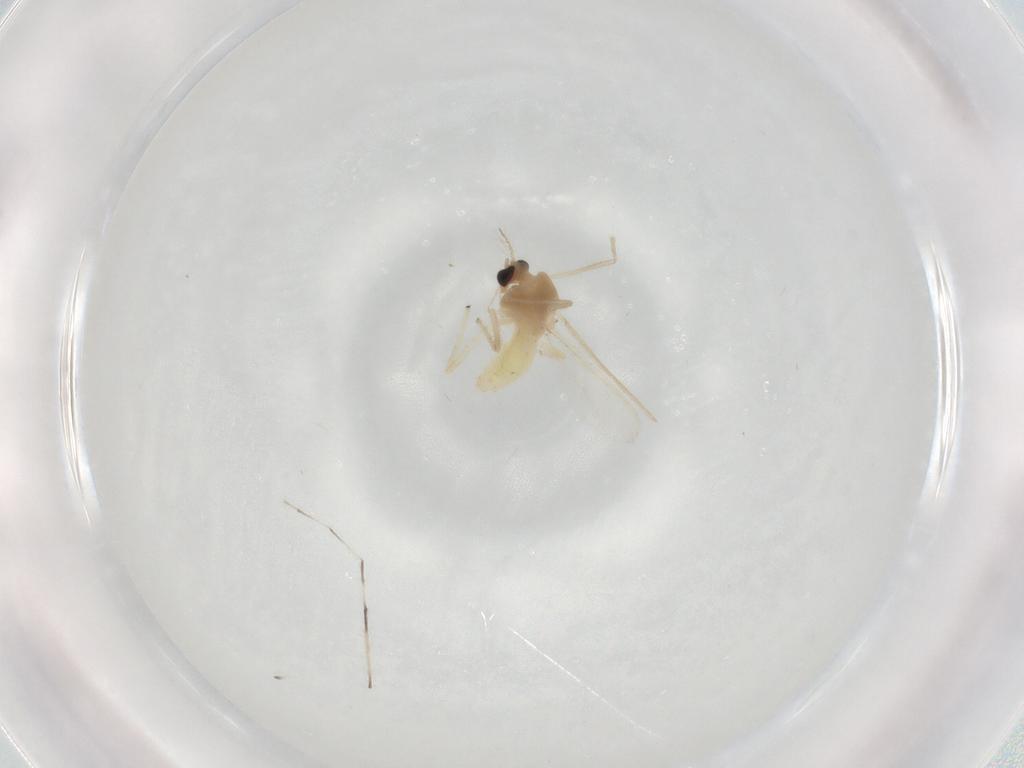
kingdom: Animalia
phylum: Arthropoda
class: Insecta
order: Diptera
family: Chironomidae
